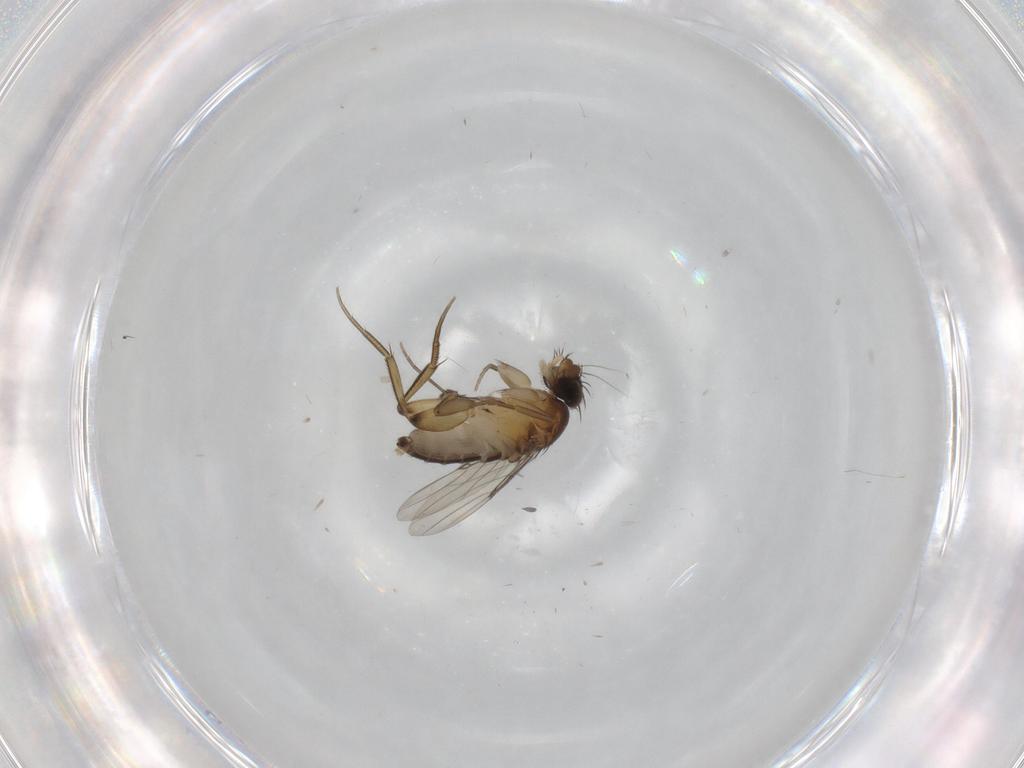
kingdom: Animalia
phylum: Arthropoda
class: Insecta
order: Diptera
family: Phoridae
